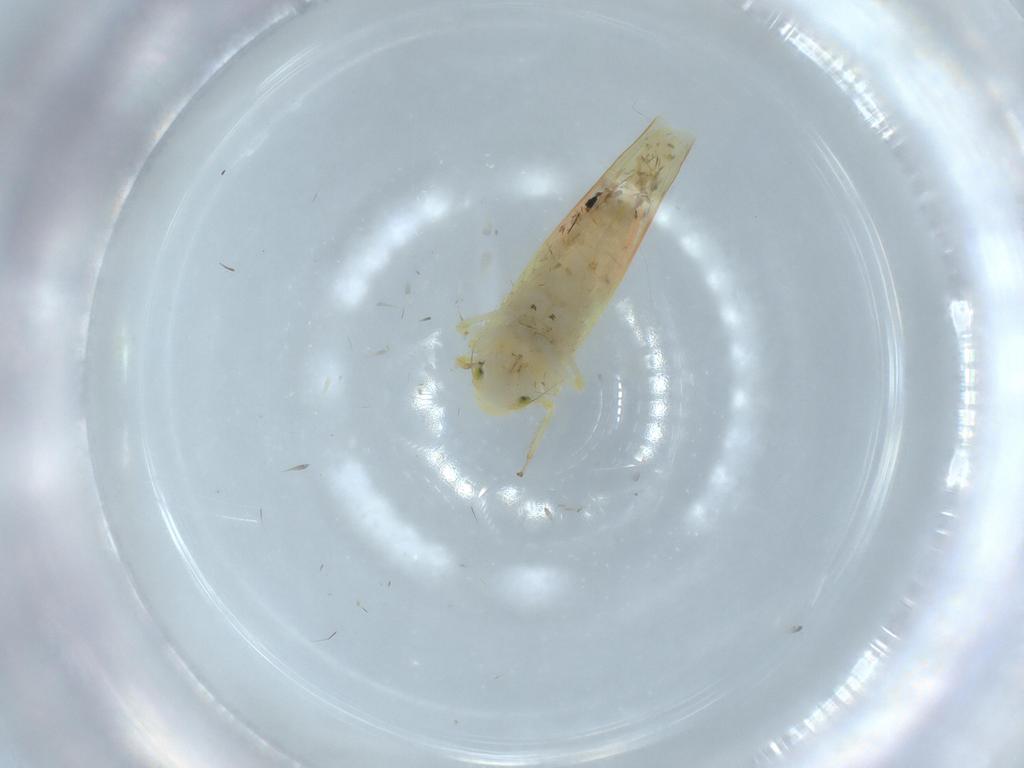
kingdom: Animalia
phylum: Arthropoda
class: Insecta
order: Hemiptera
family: Cicadellidae
